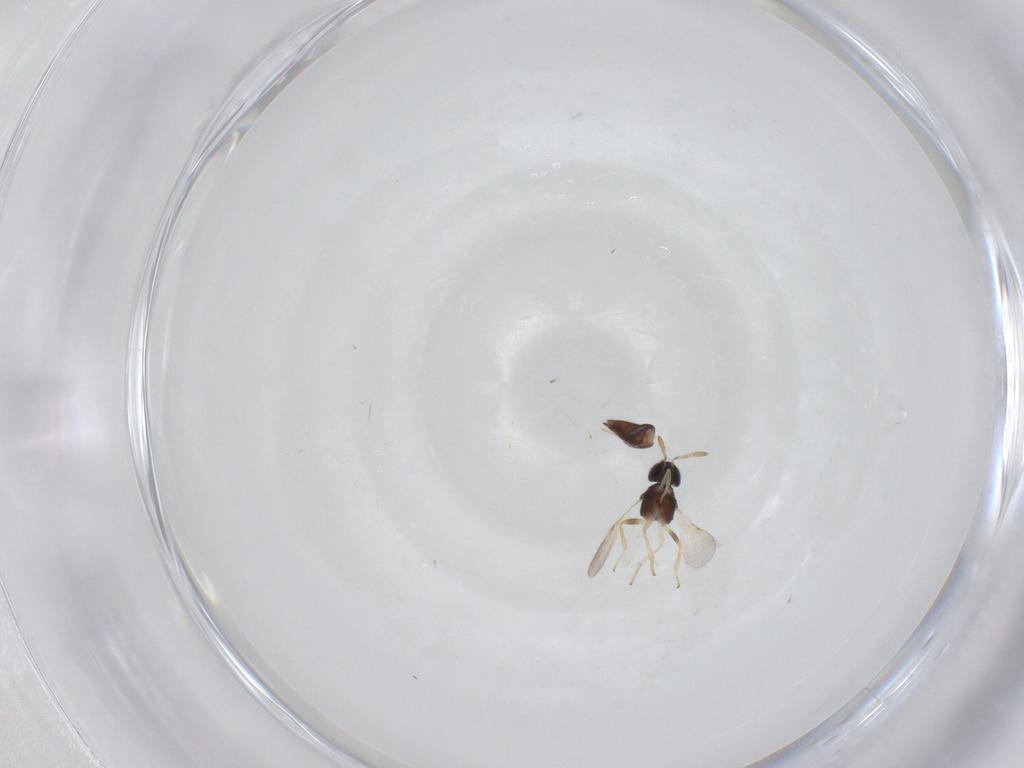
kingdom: Animalia
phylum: Arthropoda
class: Insecta
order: Hymenoptera
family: Encyrtidae
